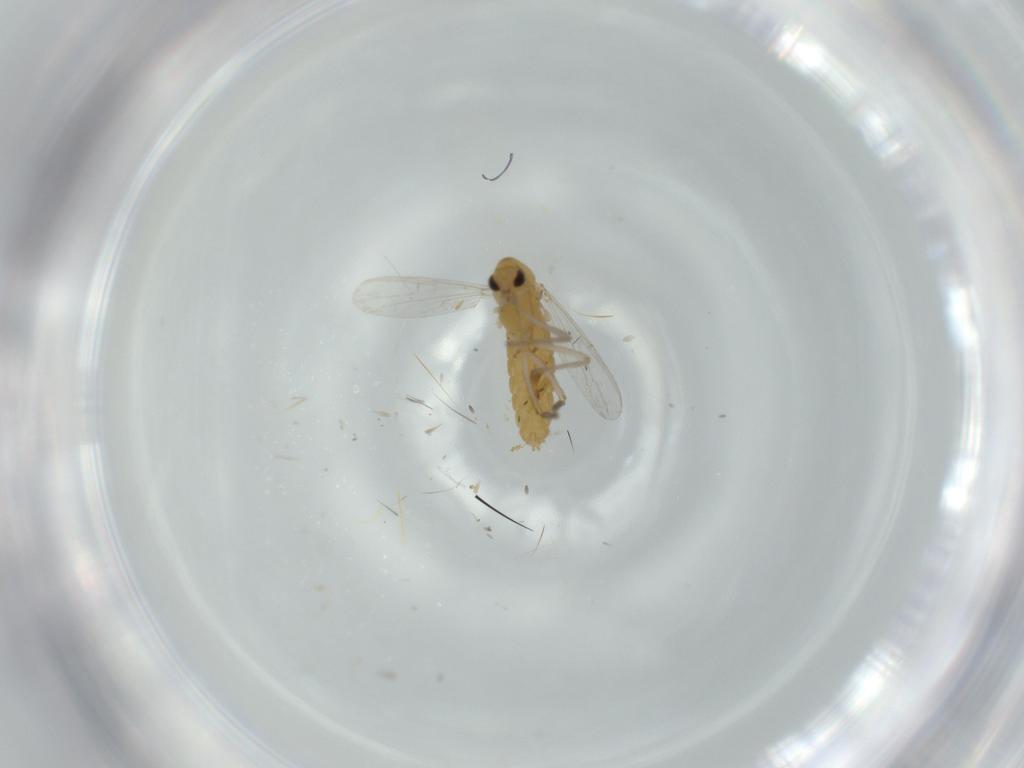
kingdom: Animalia
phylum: Arthropoda
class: Insecta
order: Diptera
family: Chironomidae
